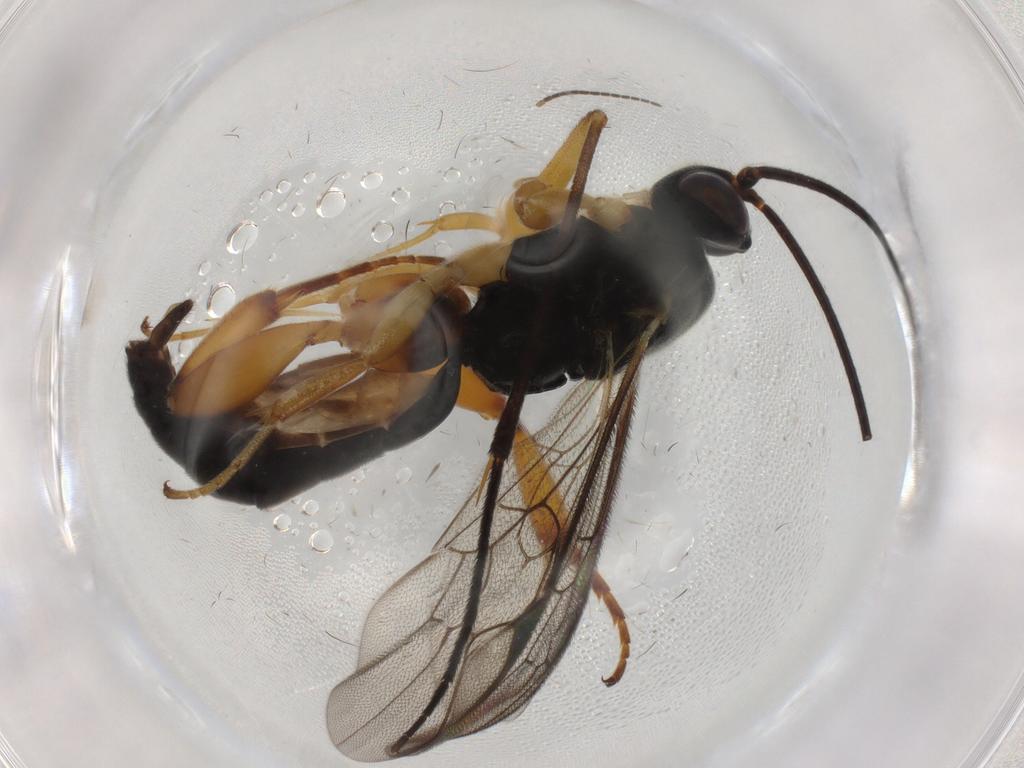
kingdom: Animalia
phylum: Arthropoda
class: Insecta
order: Hymenoptera
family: Ichneumonidae
